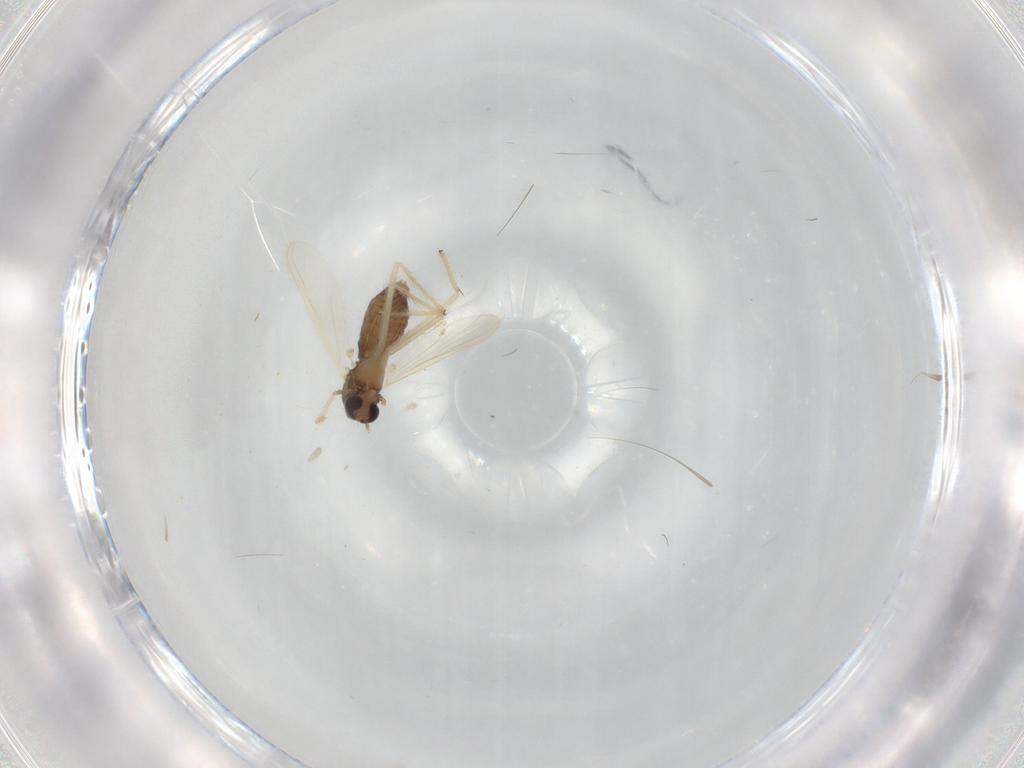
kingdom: Animalia
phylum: Arthropoda
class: Insecta
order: Diptera
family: Chironomidae
